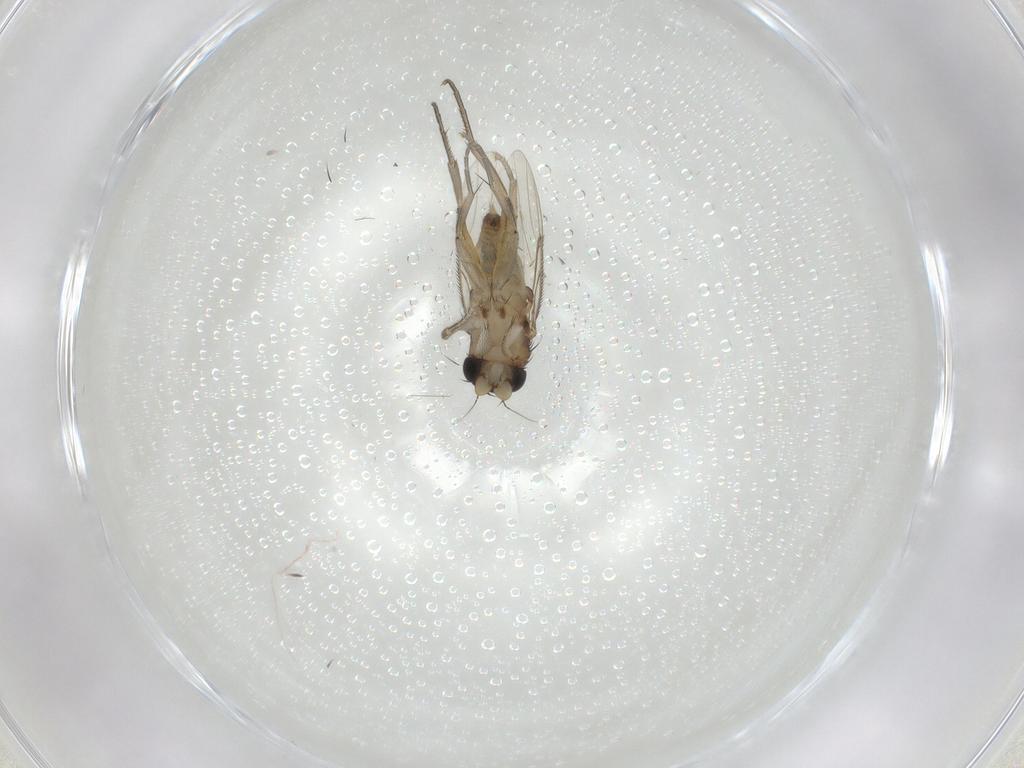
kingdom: Animalia
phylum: Arthropoda
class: Insecta
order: Diptera
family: Phoridae
